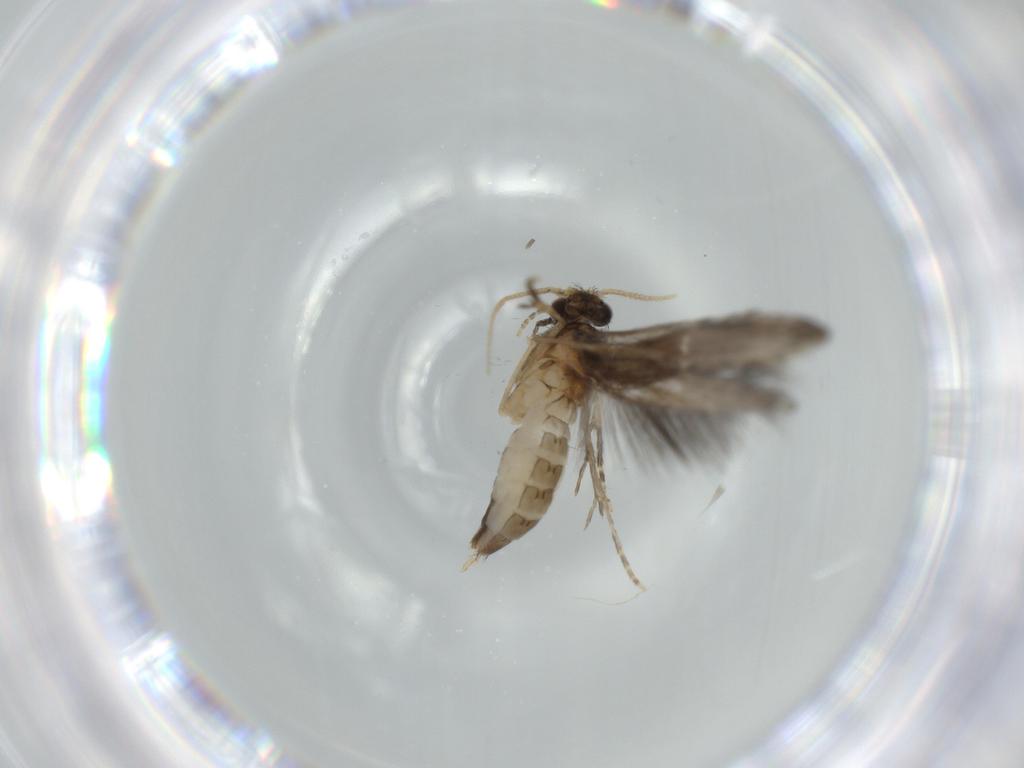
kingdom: Animalia
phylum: Arthropoda
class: Insecta
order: Trichoptera
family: Hydroptilidae
